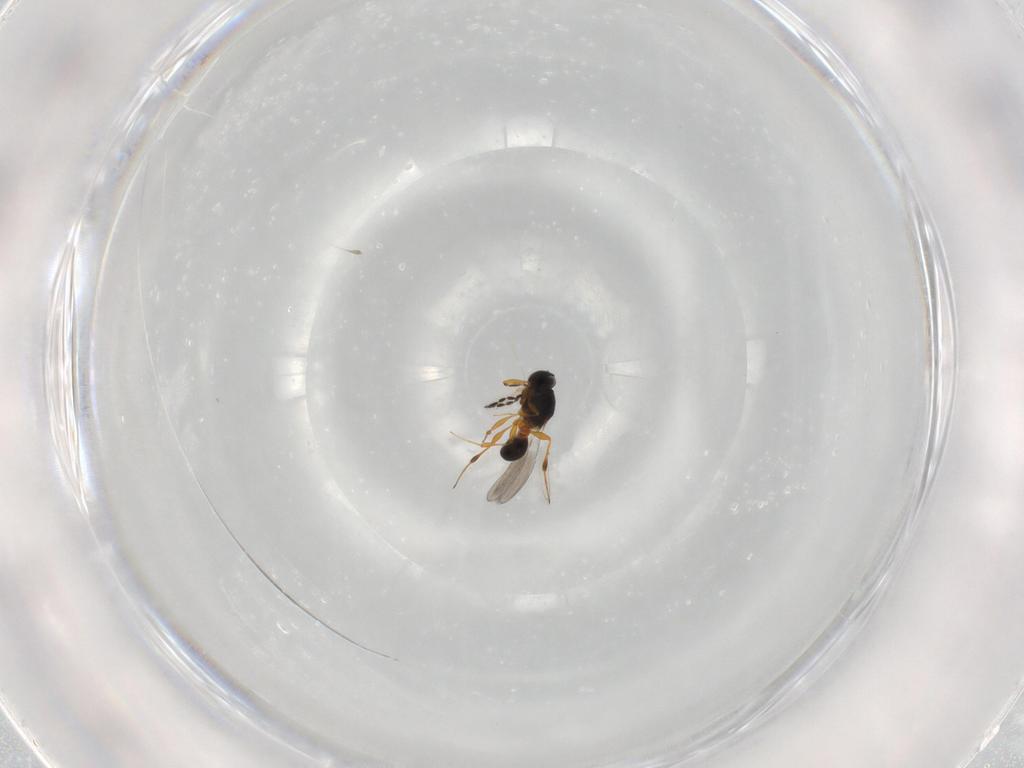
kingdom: Animalia
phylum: Arthropoda
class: Insecta
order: Hymenoptera
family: Platygastridae
